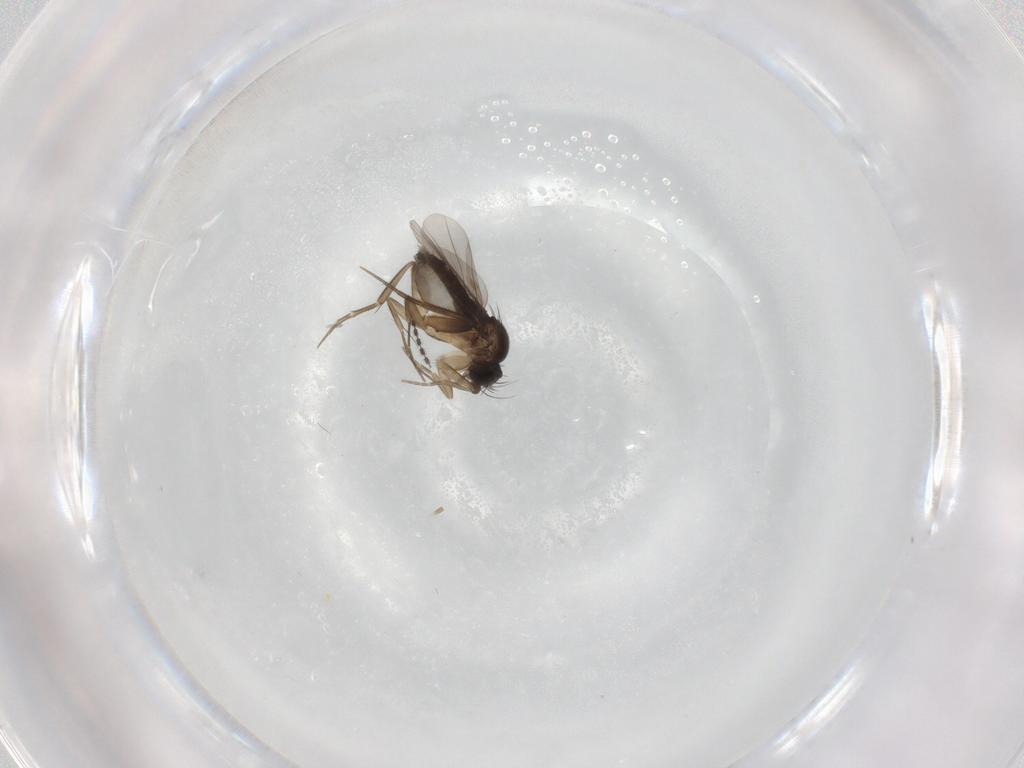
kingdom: Animalia
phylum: Arthropoda
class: Insecta
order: Diptera
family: Phoridae
